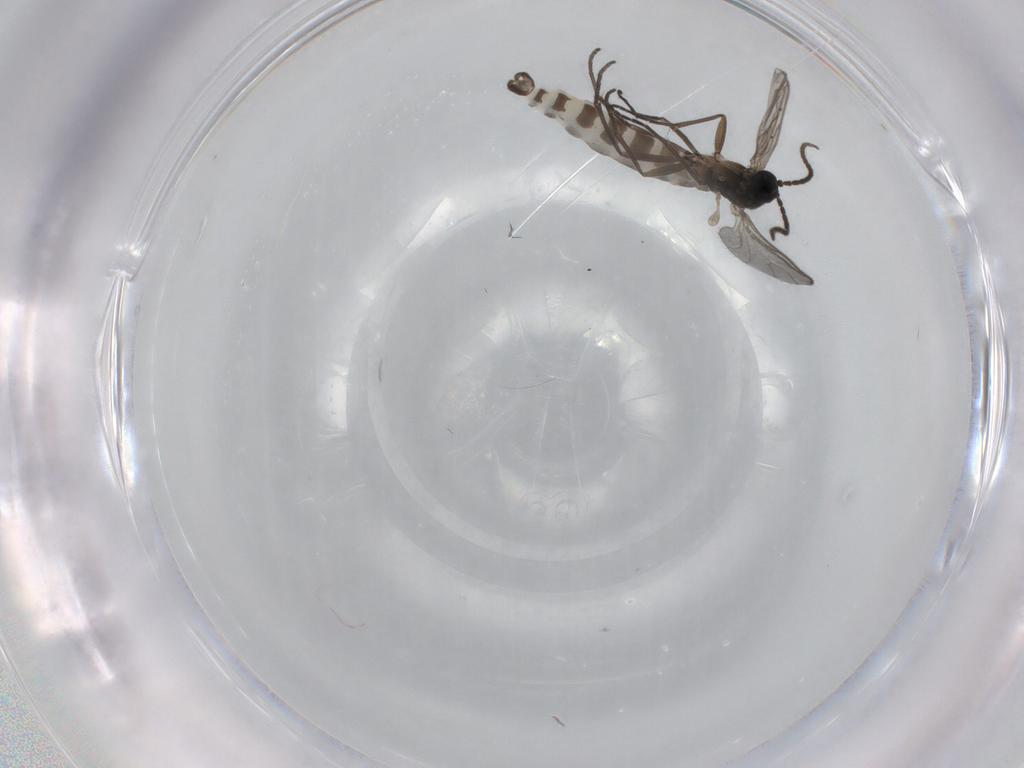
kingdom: Animalia
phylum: Arthropoda
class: Insecta
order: Diptera
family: Sciaridae
